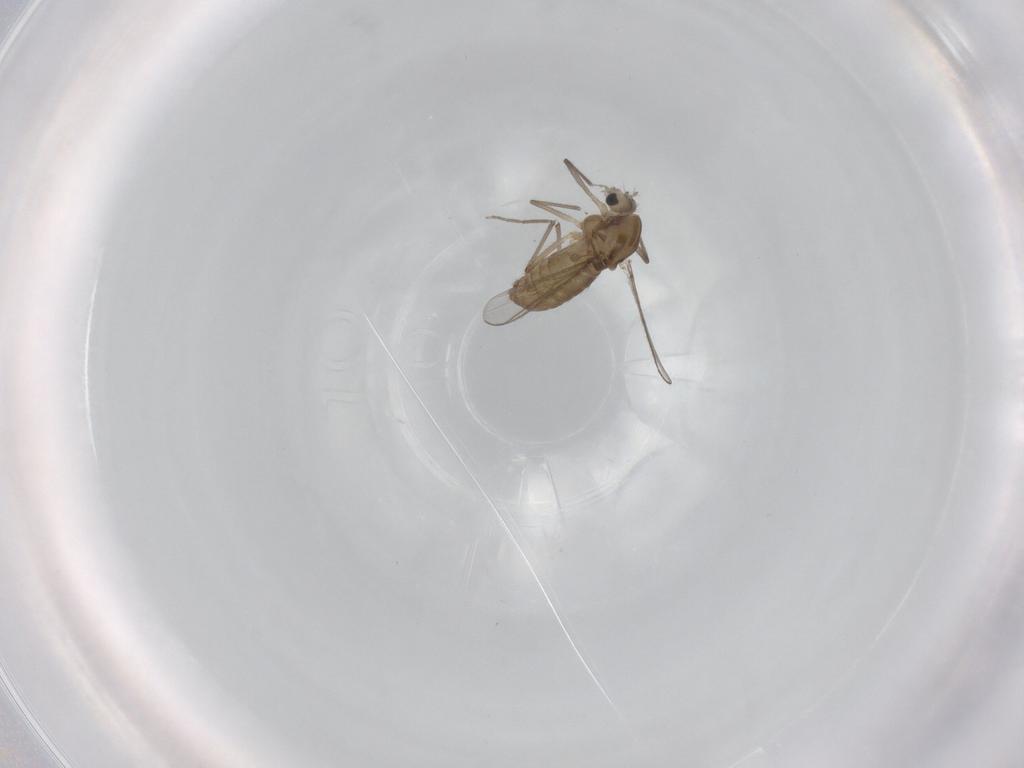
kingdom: Animalia
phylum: Arthropoda
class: Insecta
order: Diptera
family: Chironomidae
